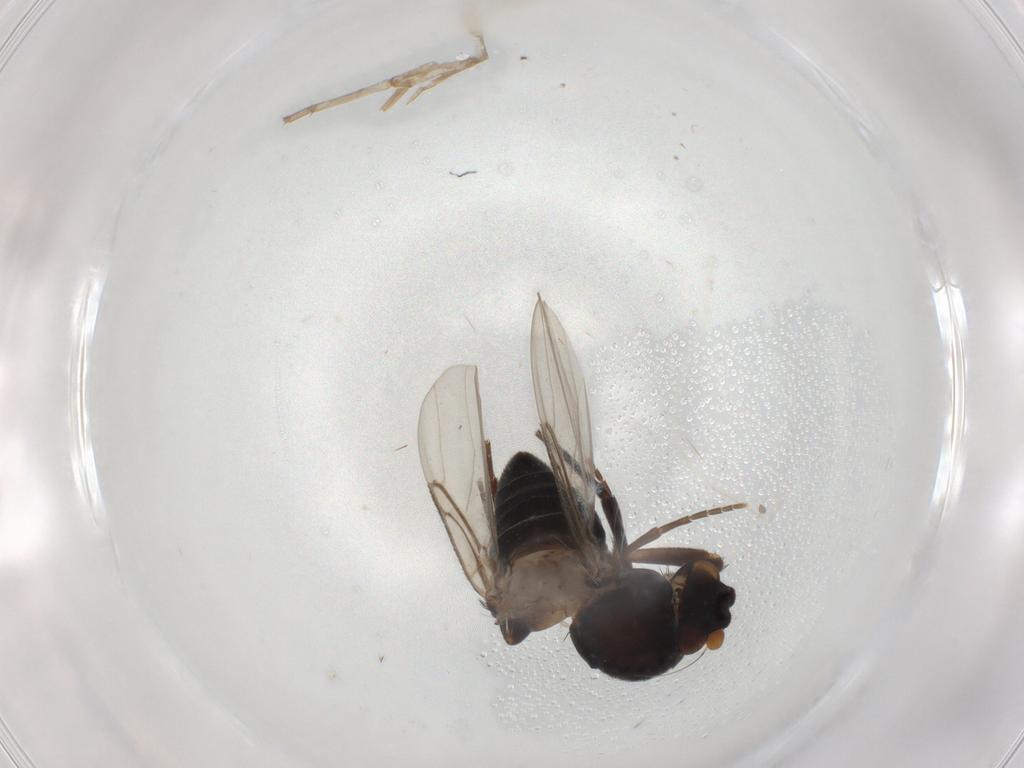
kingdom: Animalia
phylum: Arthropoda
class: Insecta
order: Diptera
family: Phoridae
